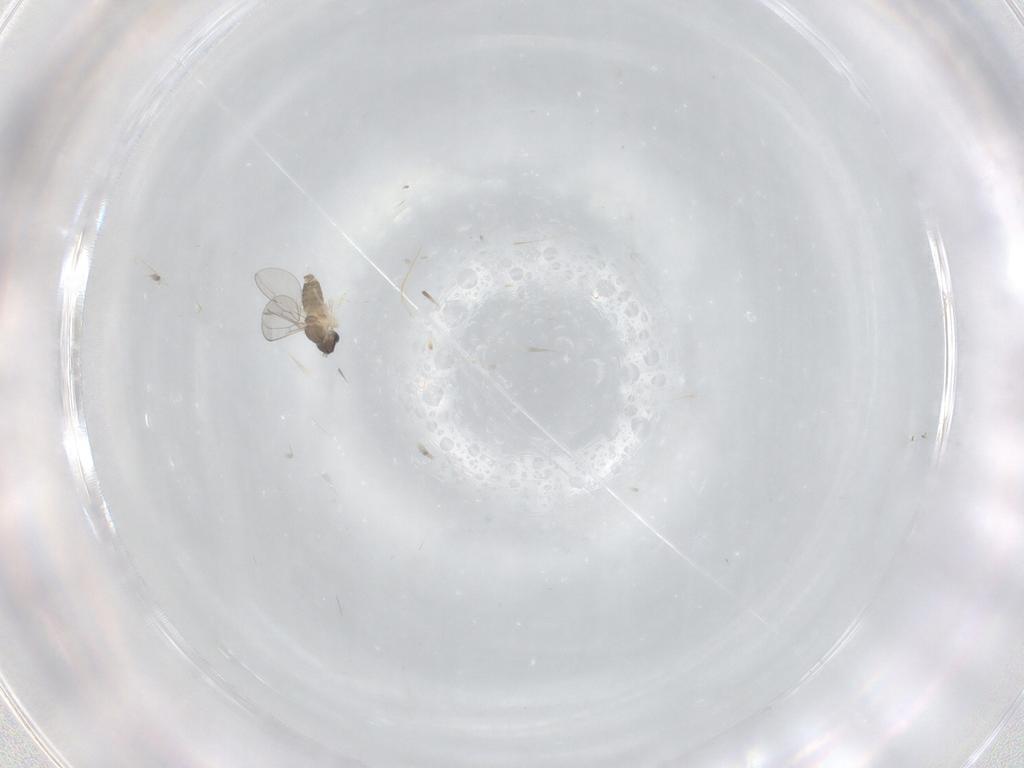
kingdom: Animalia
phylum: Arthropoda
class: Insecta
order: Diptera
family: Cecidomyiidae
